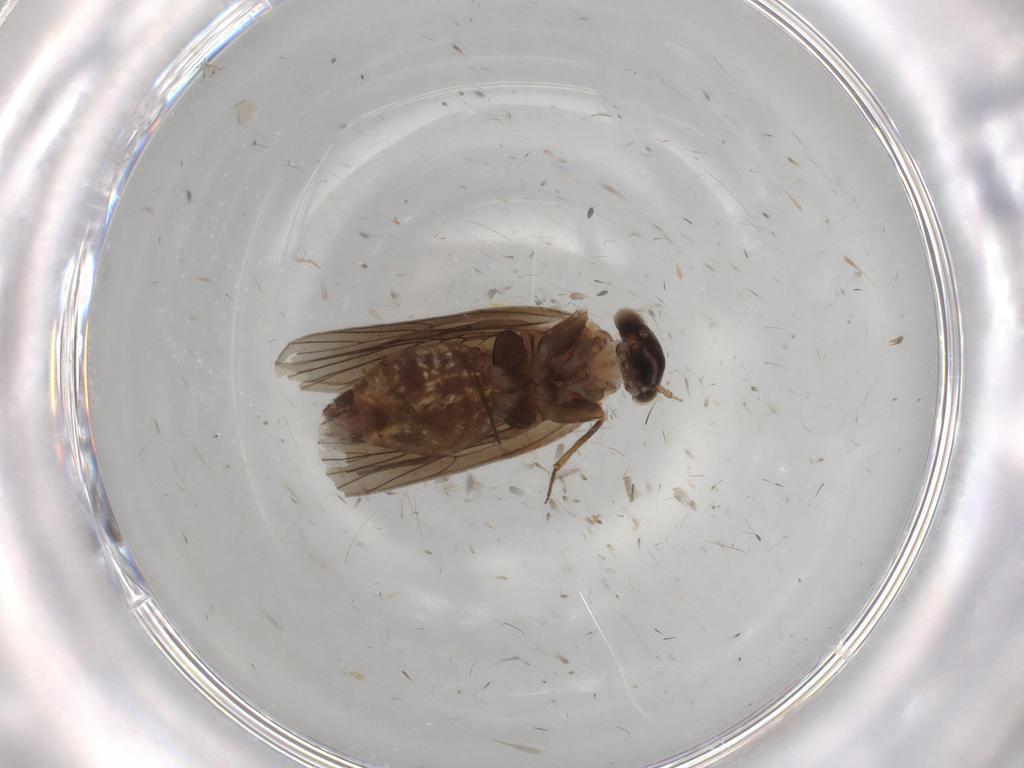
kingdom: Animalia
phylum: Arthropoda
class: Insecta
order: Psocodea
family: Lepidopsocidae
